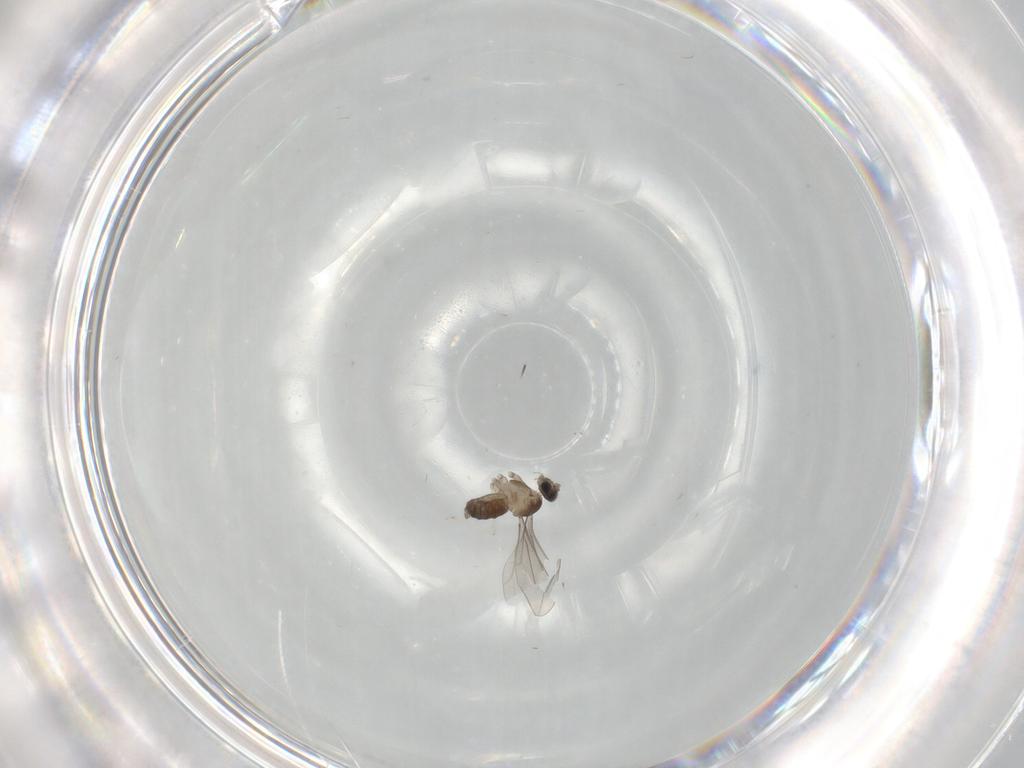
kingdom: Animalia
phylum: Arthropoda
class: Insecta
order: Diptera
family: Cecidomyiidae
